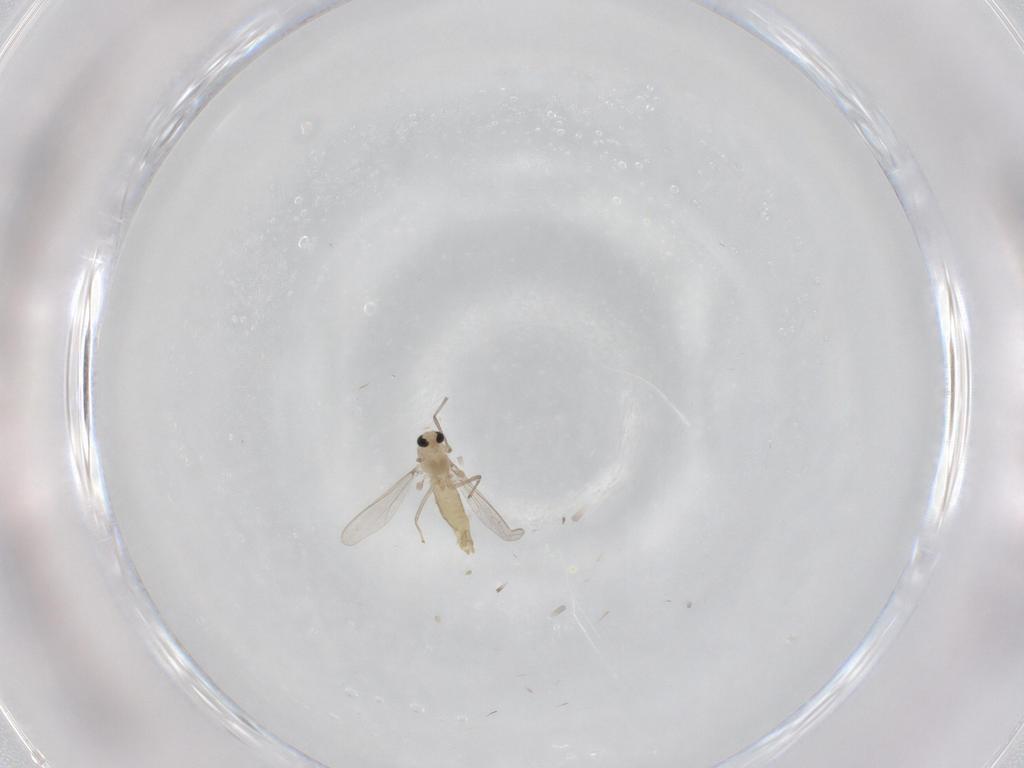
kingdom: Animalia
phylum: Arthropoda
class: Insecta
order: Diptera
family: Chironomidae
